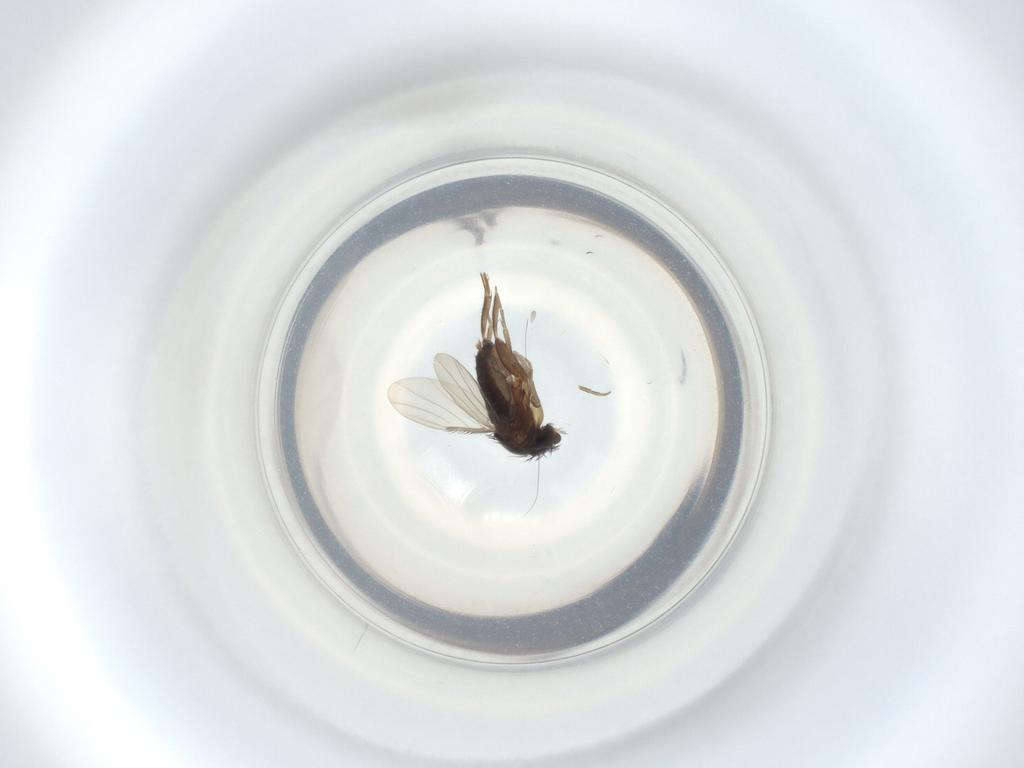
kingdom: Animalia
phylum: Arthropoda
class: Insecta
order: Diptera
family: Phoridae
